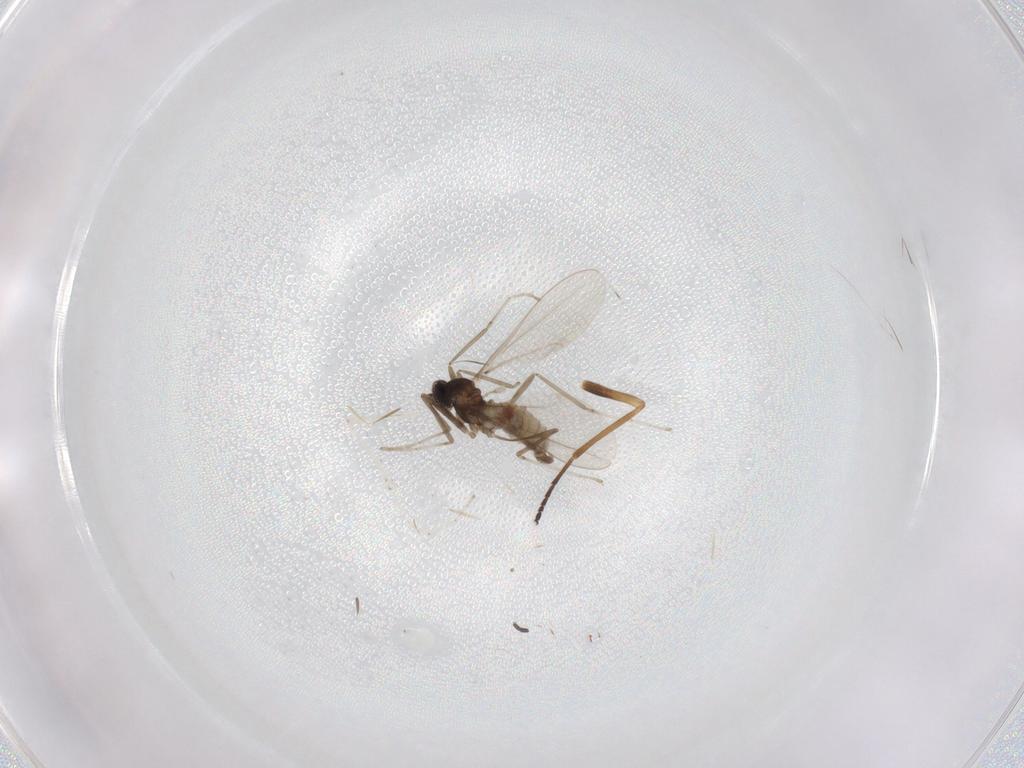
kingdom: Animalia
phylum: Arthropoda
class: Insecta
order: Diptera
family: Cecidomyiidae
